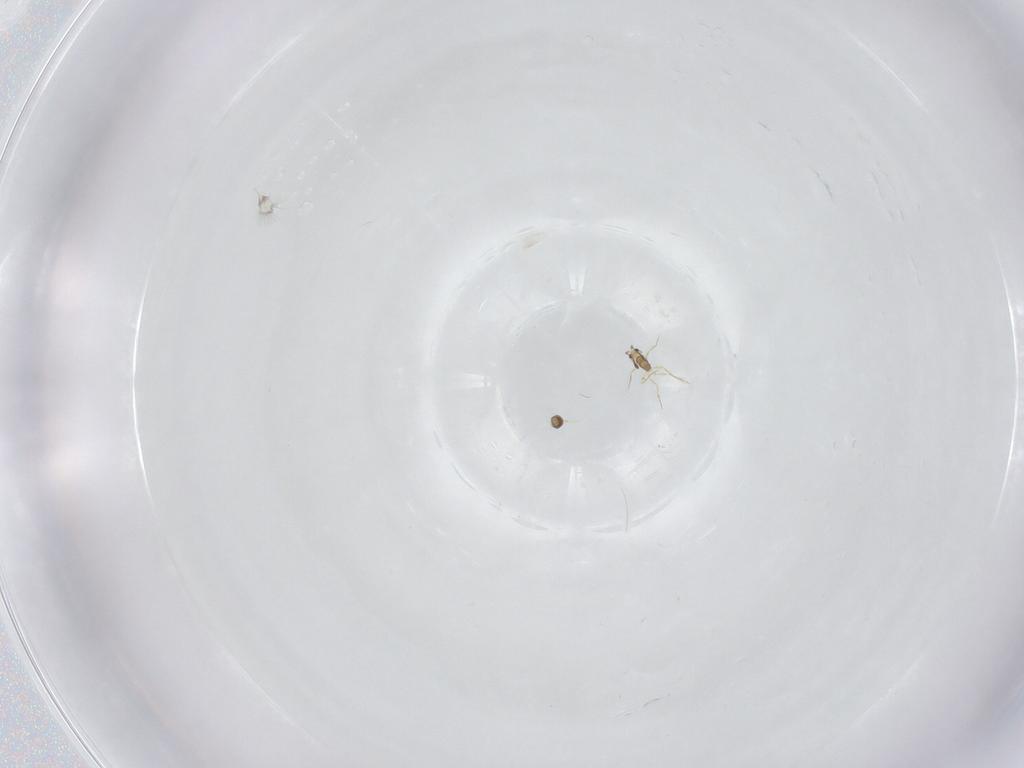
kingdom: Animalia
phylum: Arthropoda
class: Insecta
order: Hymenoptera
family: Mymarommatidae
